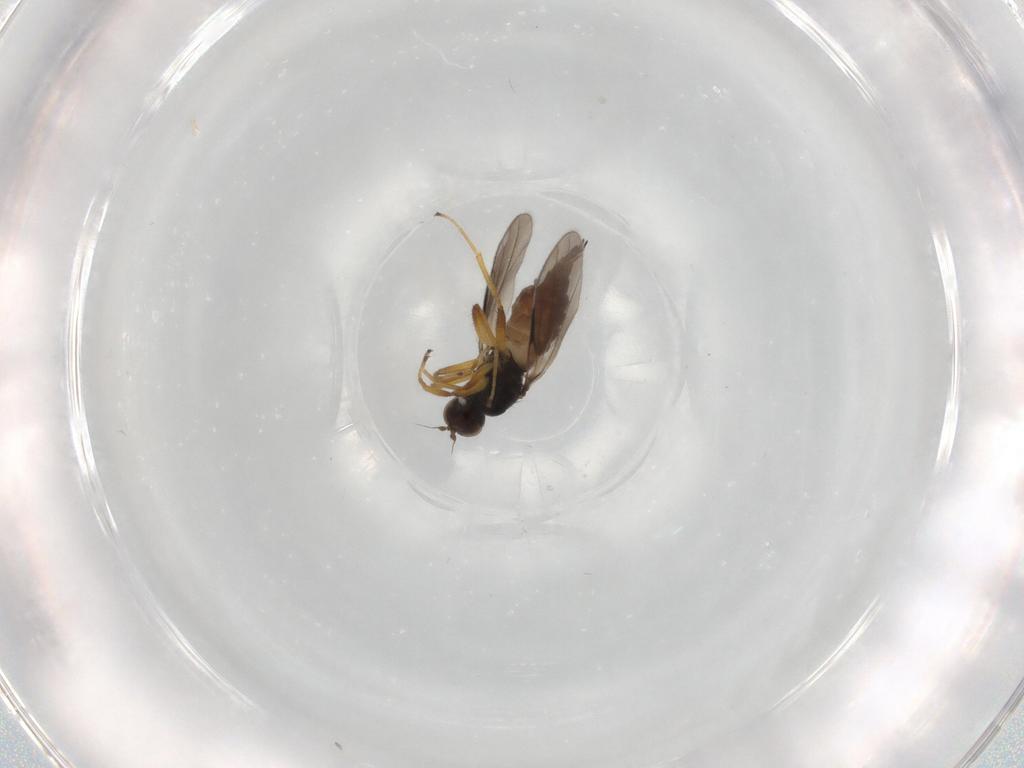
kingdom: Animalia
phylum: Arthropoda
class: Insecta
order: Diptera
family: Hybotidae
